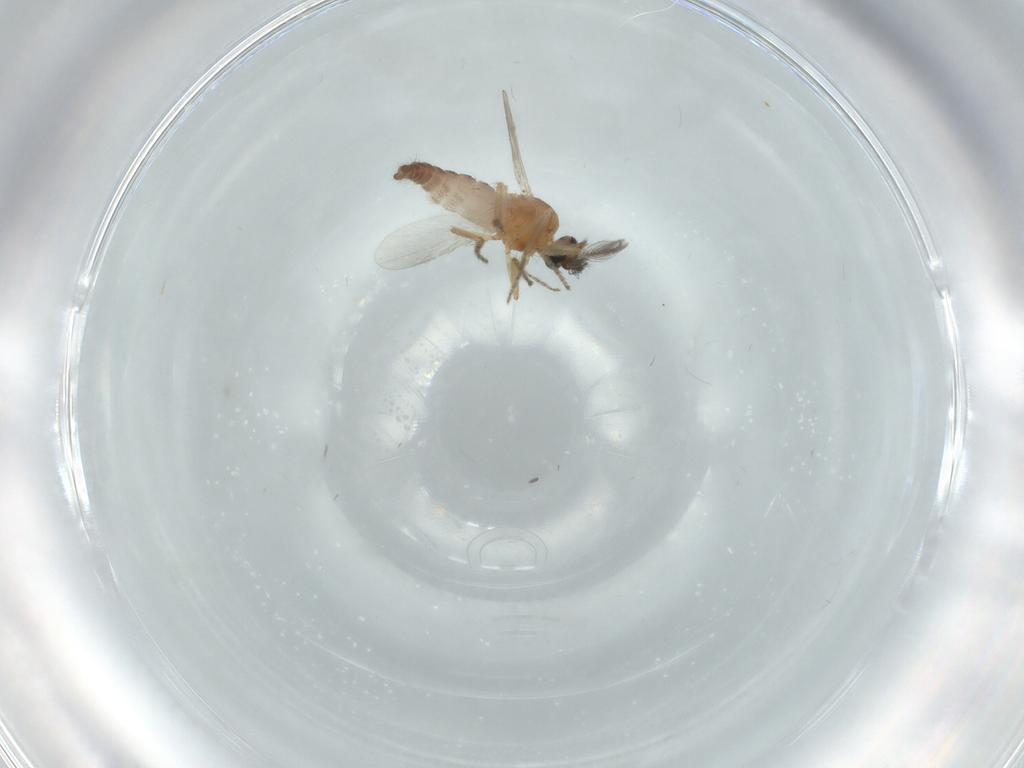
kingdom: Animalia
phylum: Arthropoda
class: Insecta
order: Diptera
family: Ceratopogonidae
